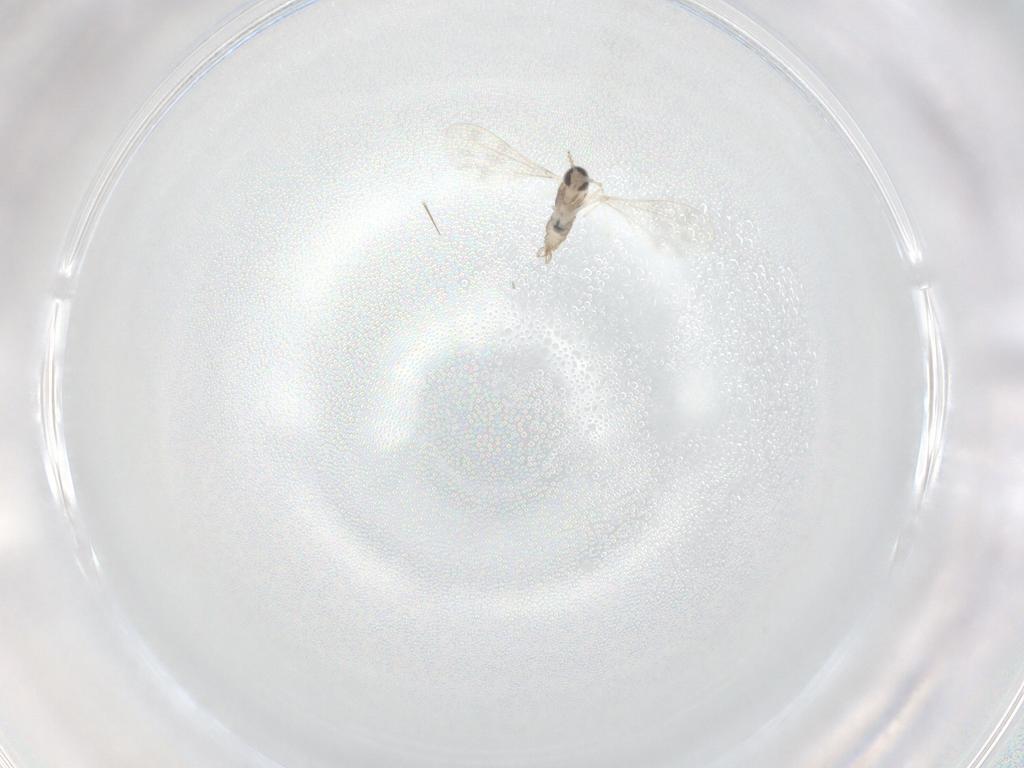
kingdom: Animalia
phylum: Arthropoda
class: Insecta
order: Diptera
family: Cecidomyiidae
